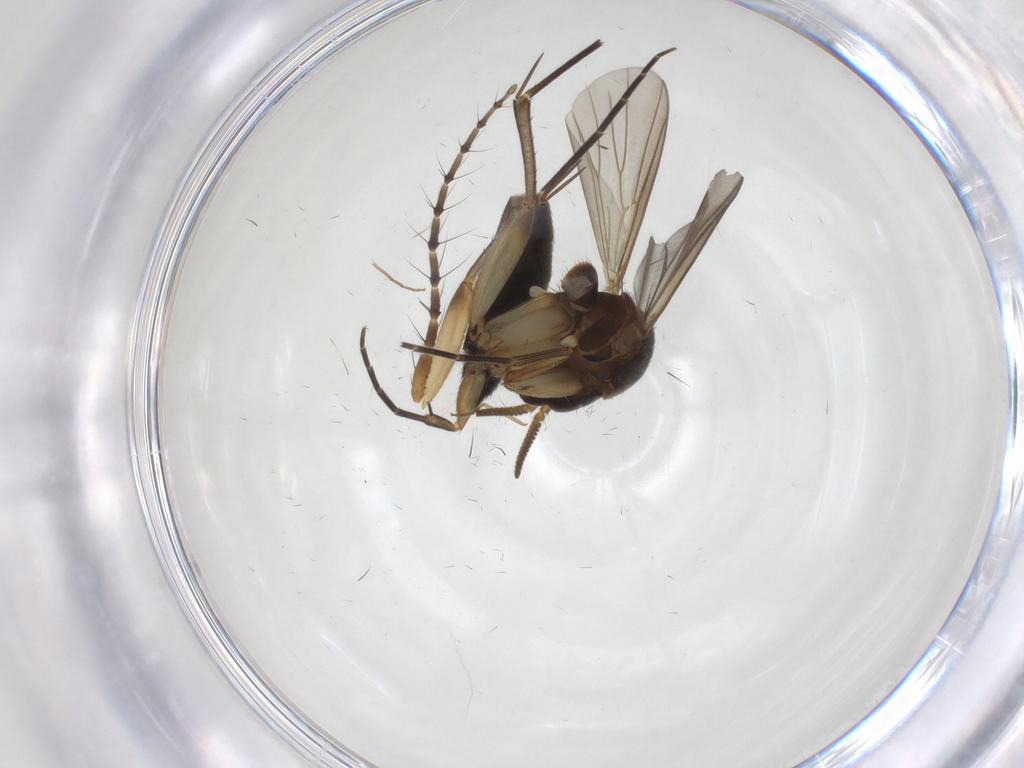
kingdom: Animalia
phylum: Arthropoda
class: Insecta
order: Diptera
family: Mycetophilidae
